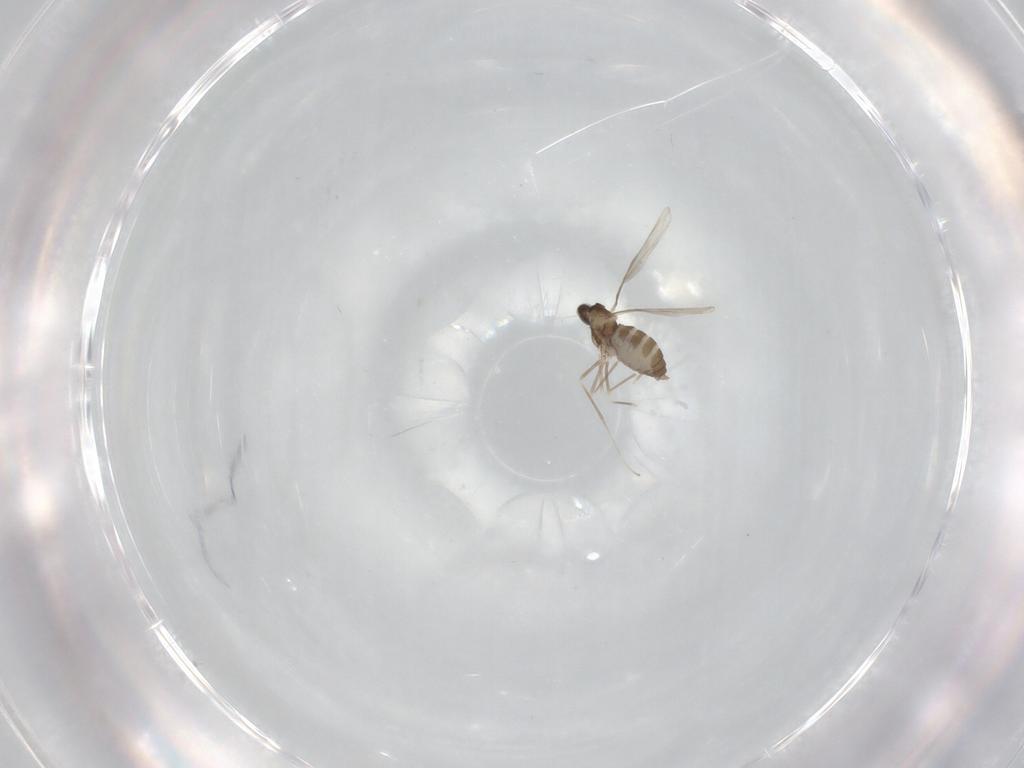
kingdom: Animalia
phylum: Arthropoda
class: Insecta
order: Diptera
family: Cecidomyiidae
